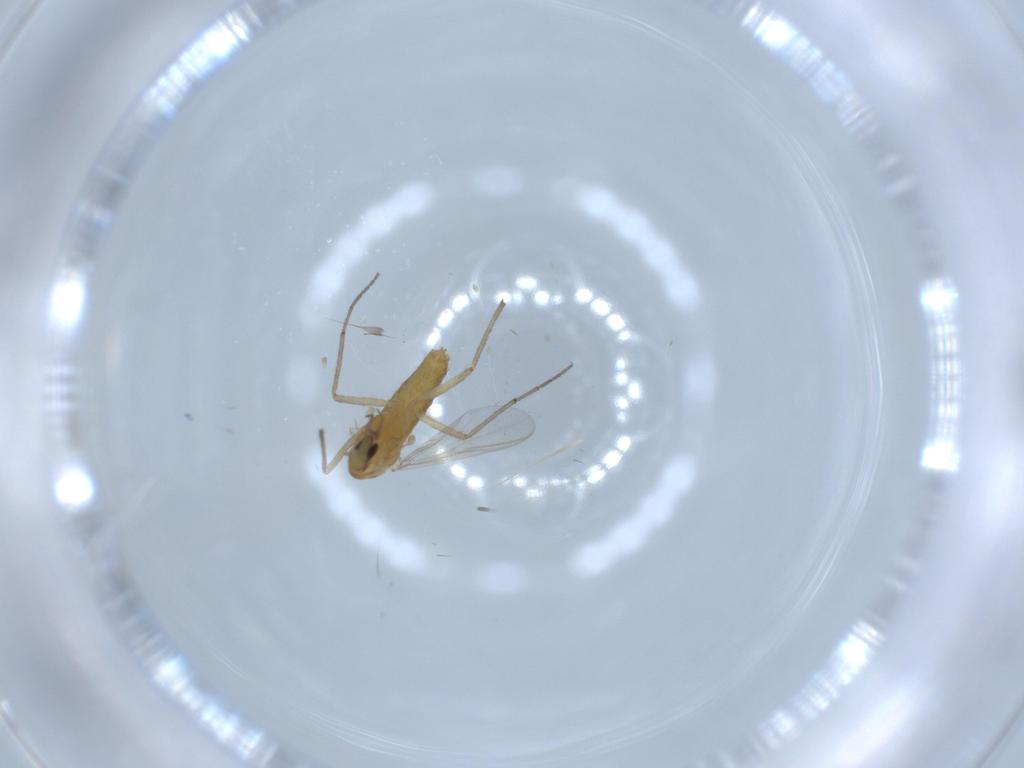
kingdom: Animalia
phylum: Arthropoda
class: Insecta
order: Diptera
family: Chironomidae
